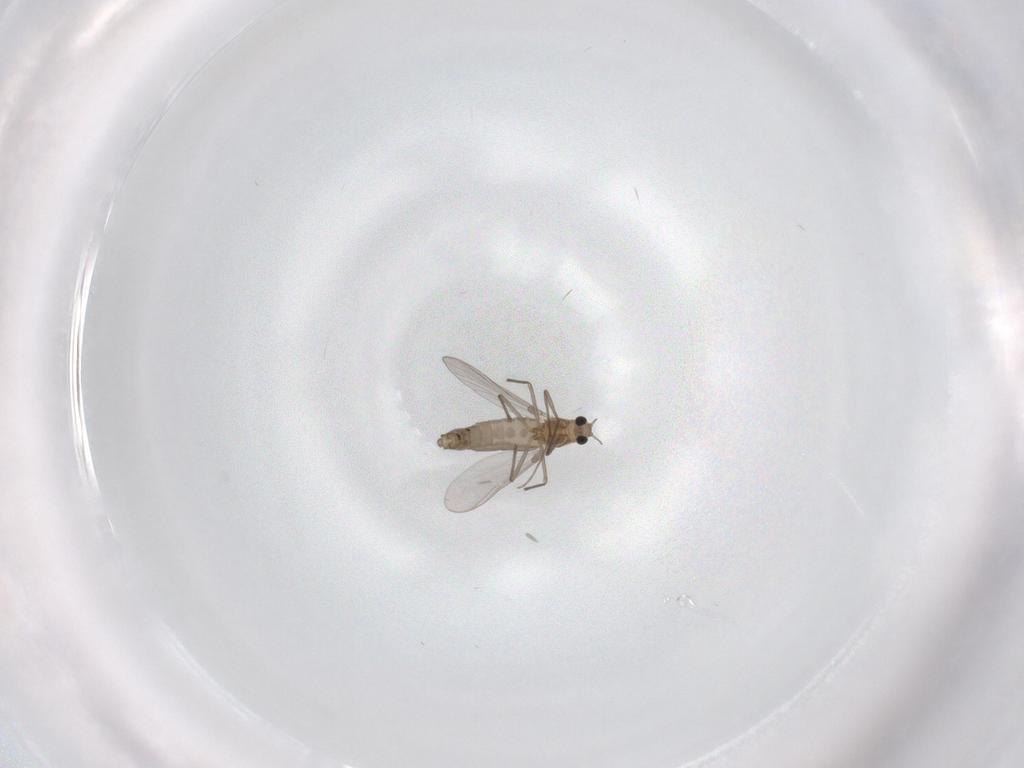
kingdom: Animalia
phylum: Arthropoda
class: Insecta
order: Diptera
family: Chironomidae
